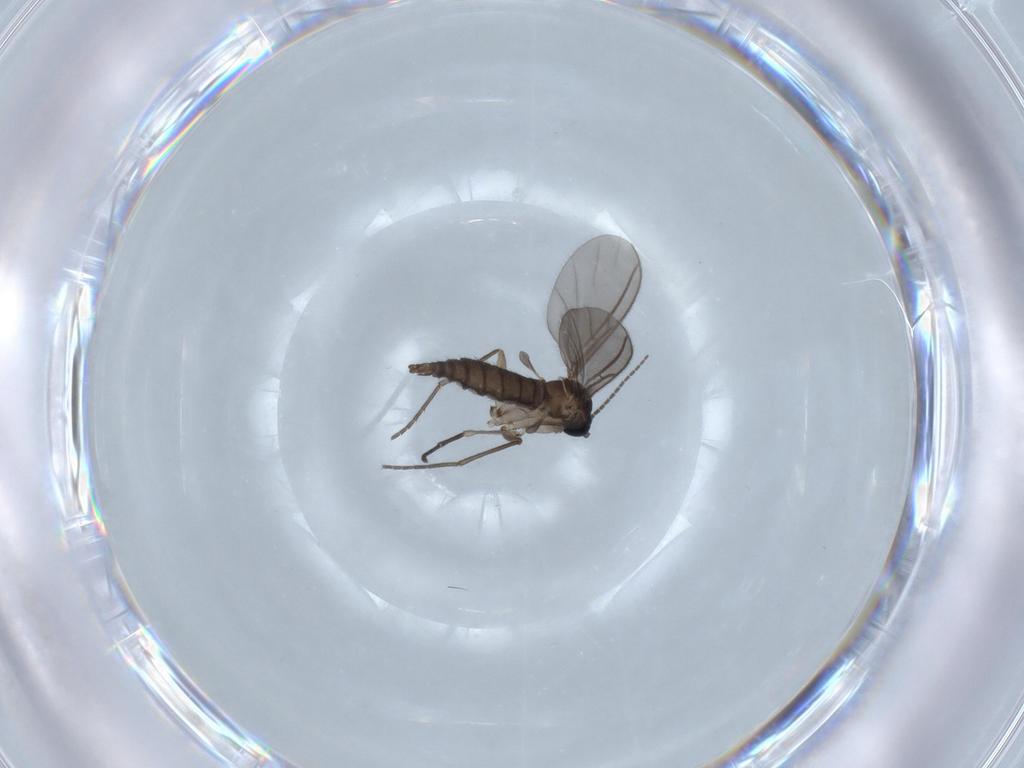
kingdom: Animalia
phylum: Arthropoda
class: Insecta
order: Diptera
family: Sciaridae
